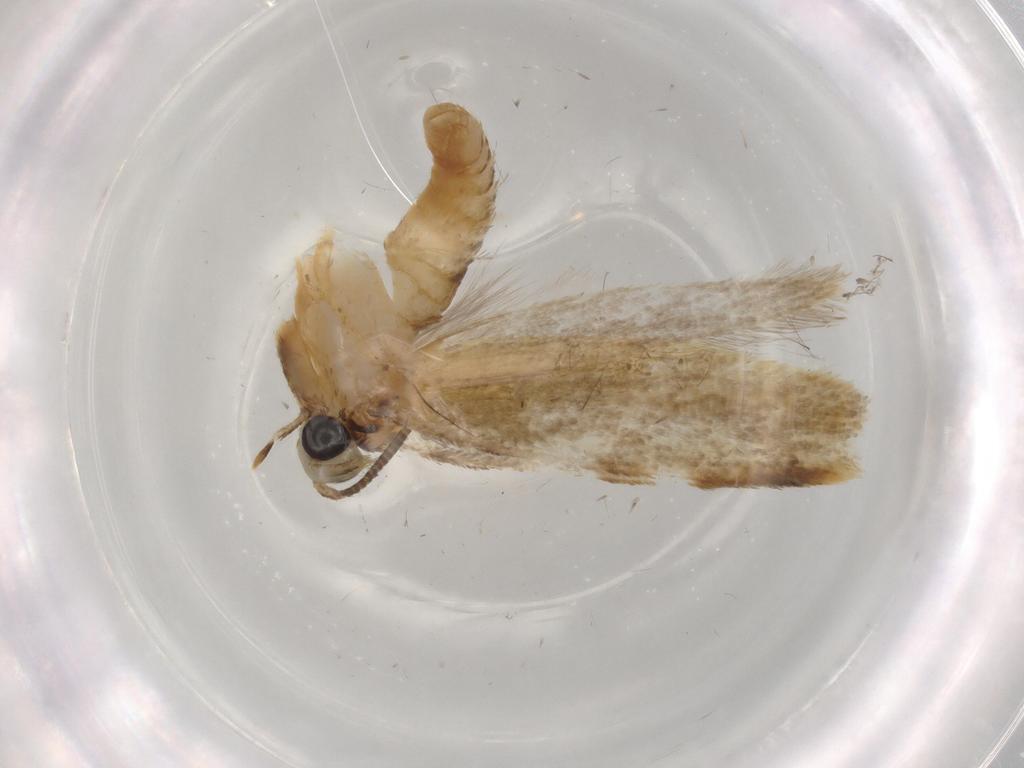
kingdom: Animalia
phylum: Arthropoda
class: Insecta
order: Lepidoptera
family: Tineidae
